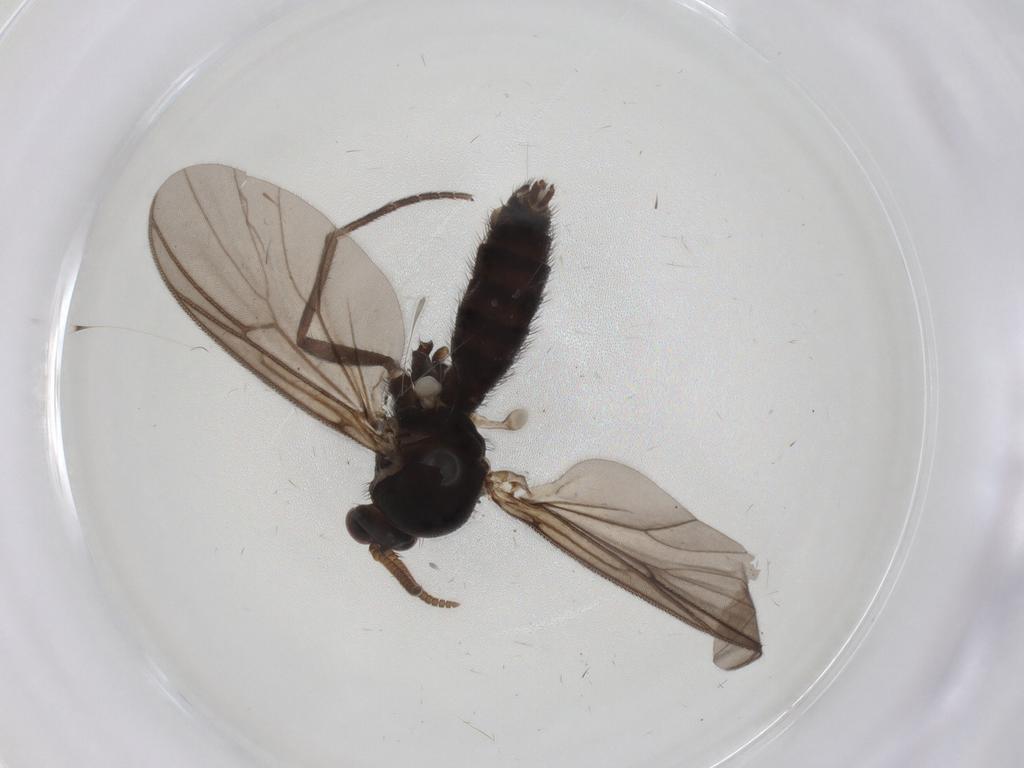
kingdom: Animalia
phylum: Arthropoda
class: Insecta
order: Diptera
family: Mycetophilidae
